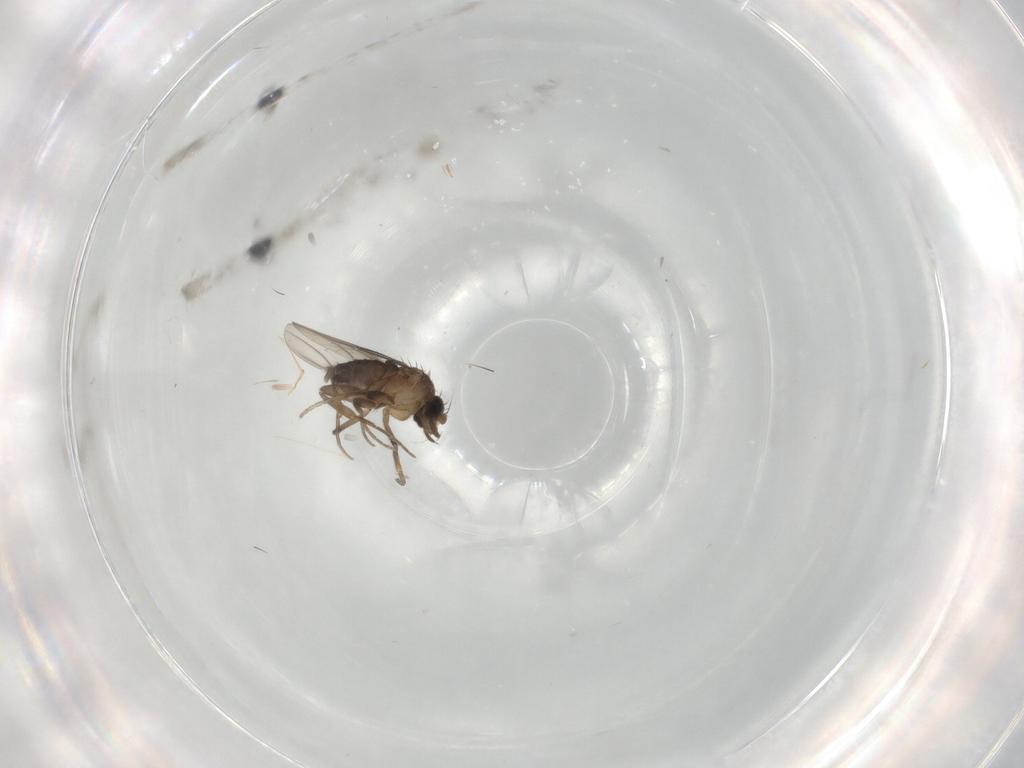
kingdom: Animalia
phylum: Arthropoda
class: Insecta
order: Diptera
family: Phoridae
